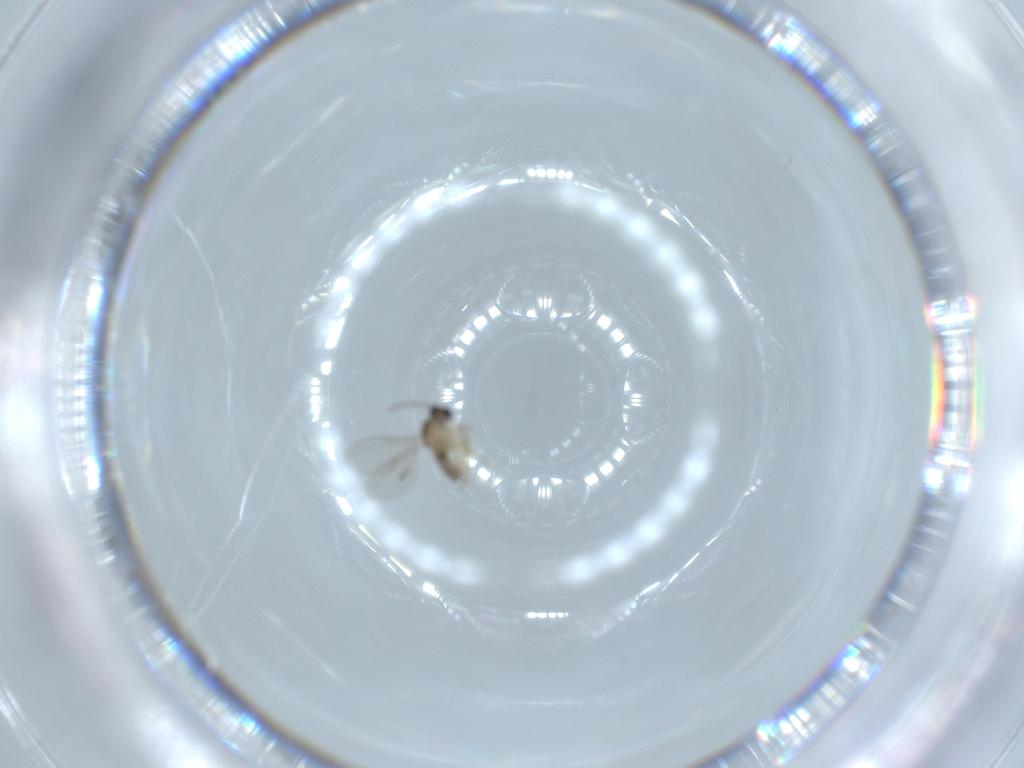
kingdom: Animalia
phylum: Arthropoda
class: Insecta
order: Diptera
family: Cecidomyiidae
